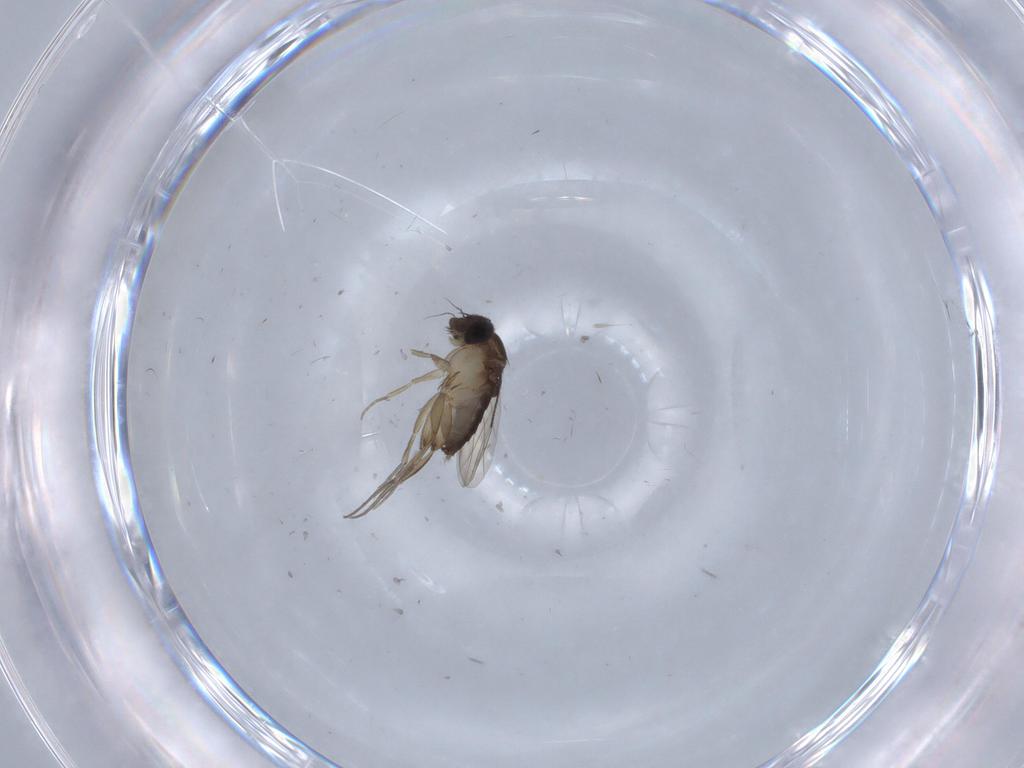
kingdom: Animalia
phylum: Arthropoda
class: Insecta
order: Diptera
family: Phoridae
